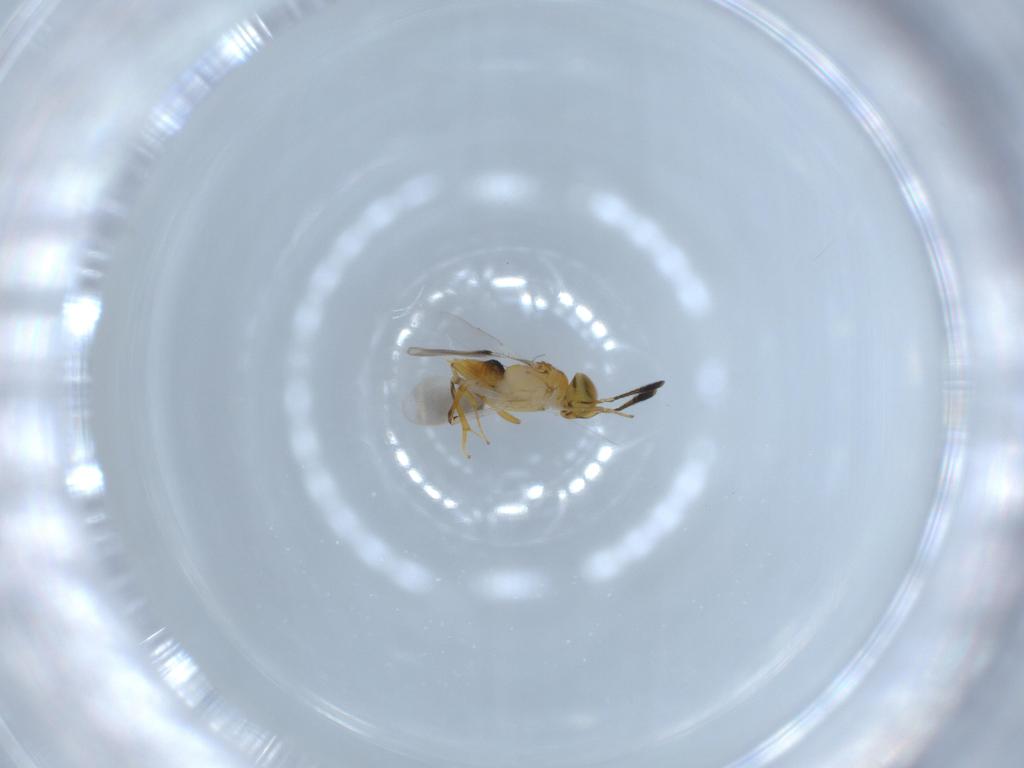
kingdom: Animalia
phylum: Arthropoda
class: Insecta
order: Hymenoptera
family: Encyrtidae
